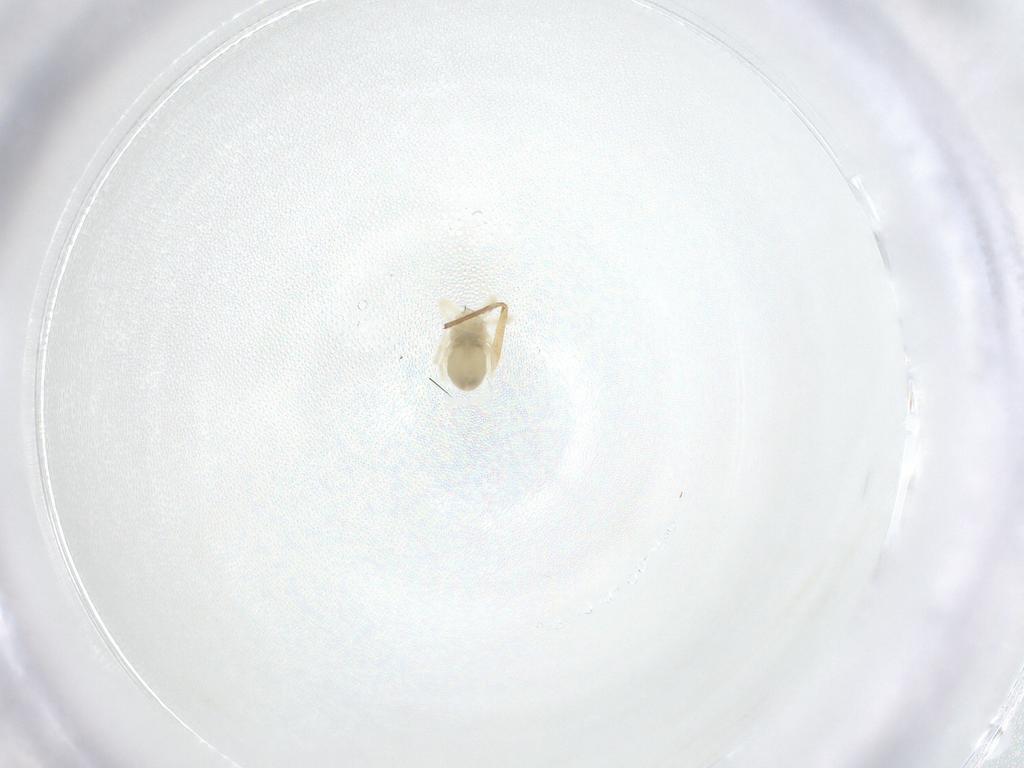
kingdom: Animalia
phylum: Arthropoda
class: Arachnida
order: Trombidiformes
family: Anystidae
